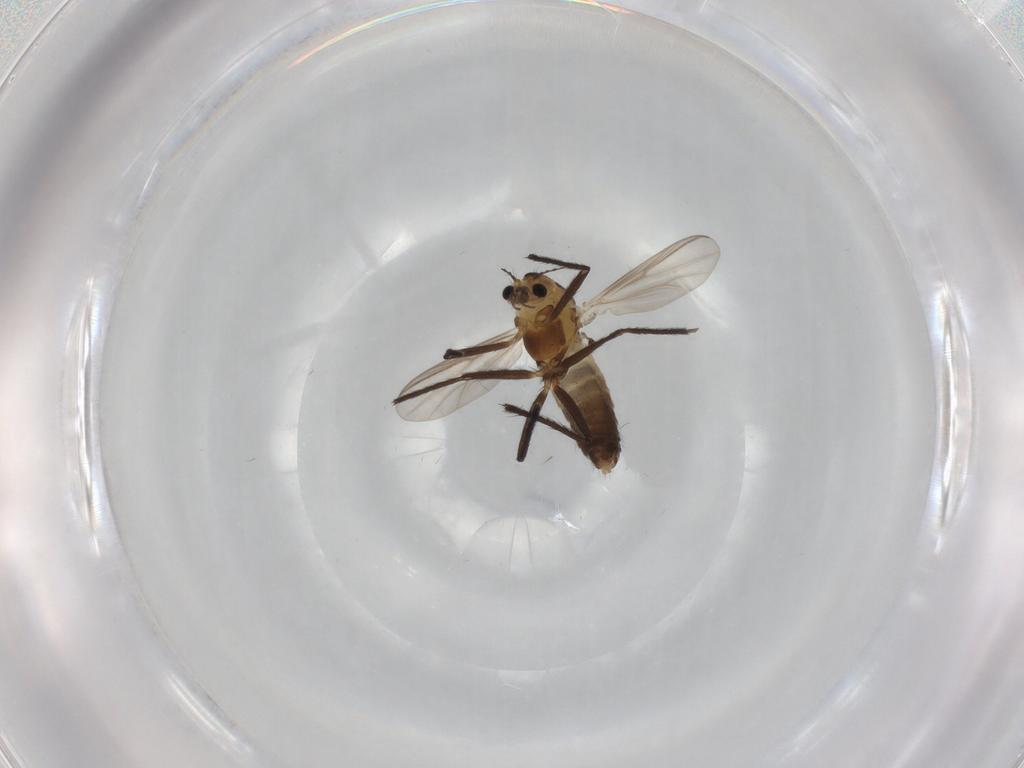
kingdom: Animalia
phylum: Arthropoda
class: Insecta
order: Diptera
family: Chironomidae
